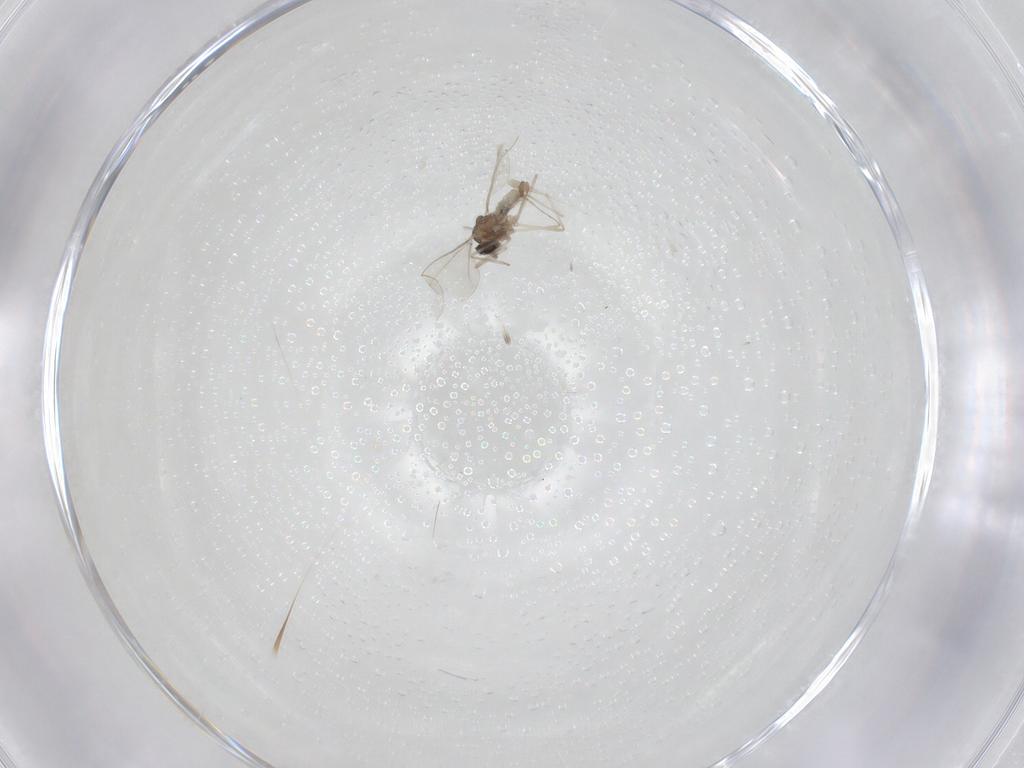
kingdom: Animalia
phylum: Arthropoda
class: Insecta
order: Diptera
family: Cecidomyiidae
